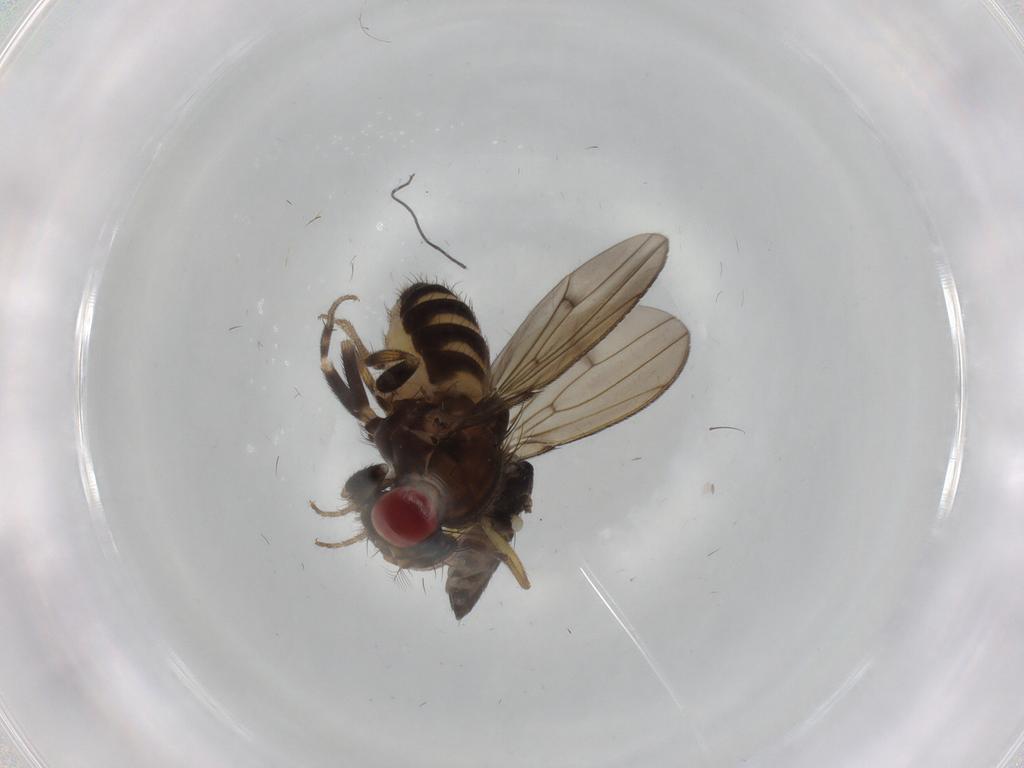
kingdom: Animalia
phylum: Arthropoda
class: Insecta
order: Diptera
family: Drosophilidae
